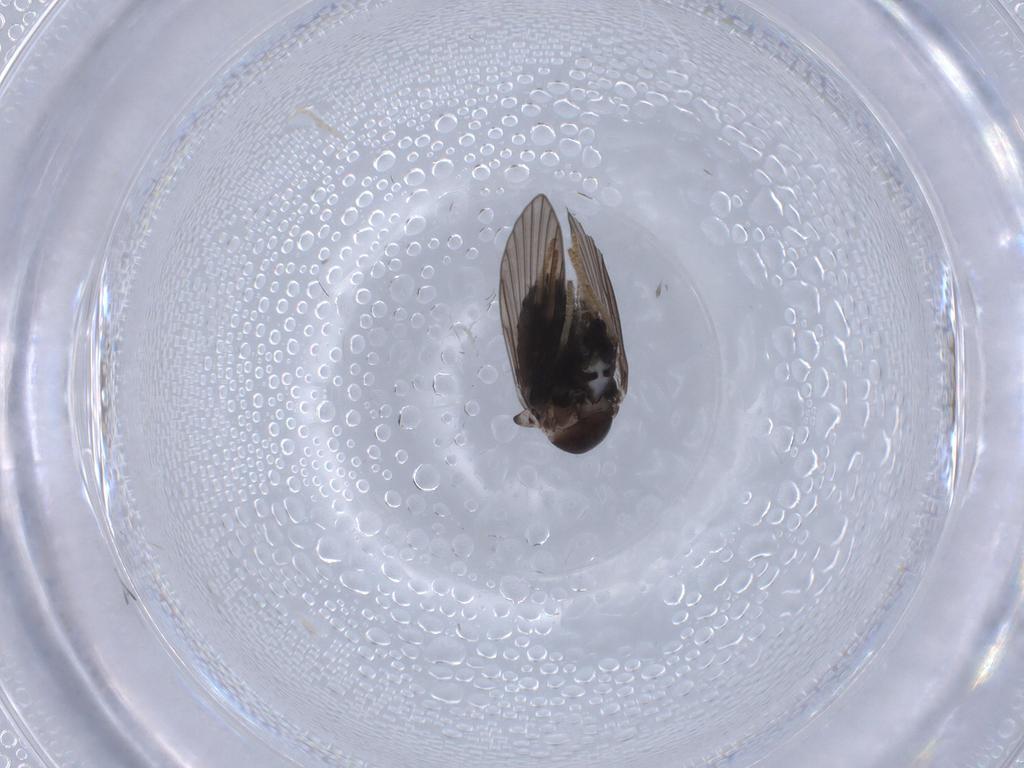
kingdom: Animalia
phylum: Arthropoda
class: Insecta
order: Diptera
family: Psychodidae
